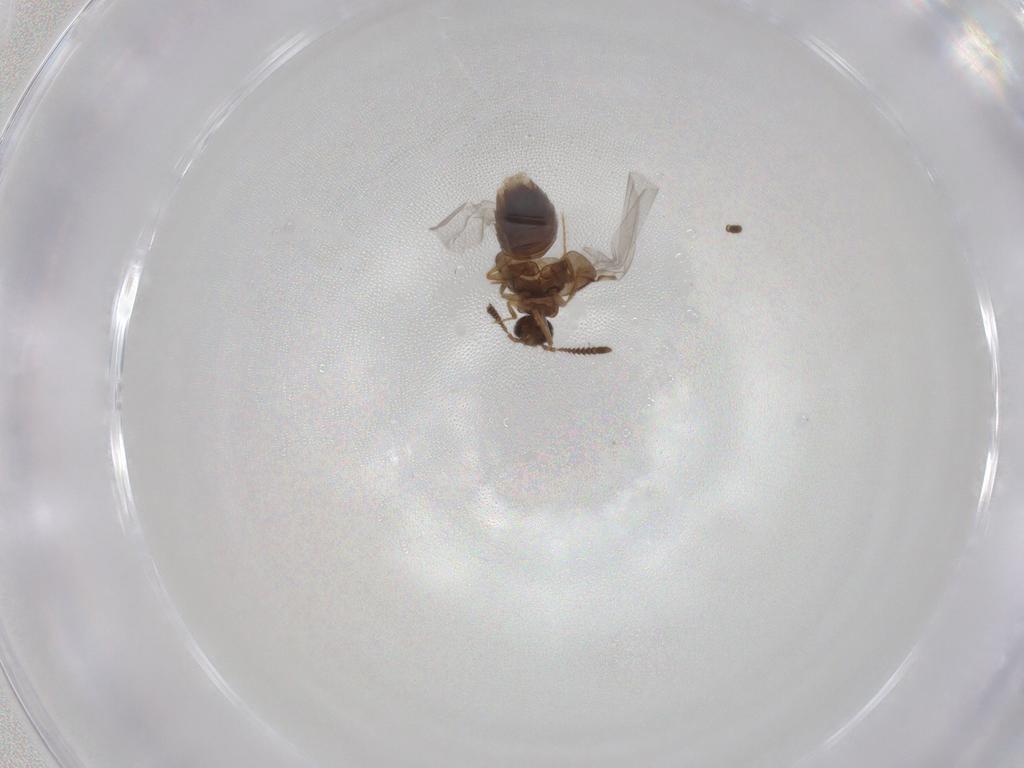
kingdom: Animalia
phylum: Arthropoda
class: Insecta
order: Coleoptera
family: Staphylinidae
